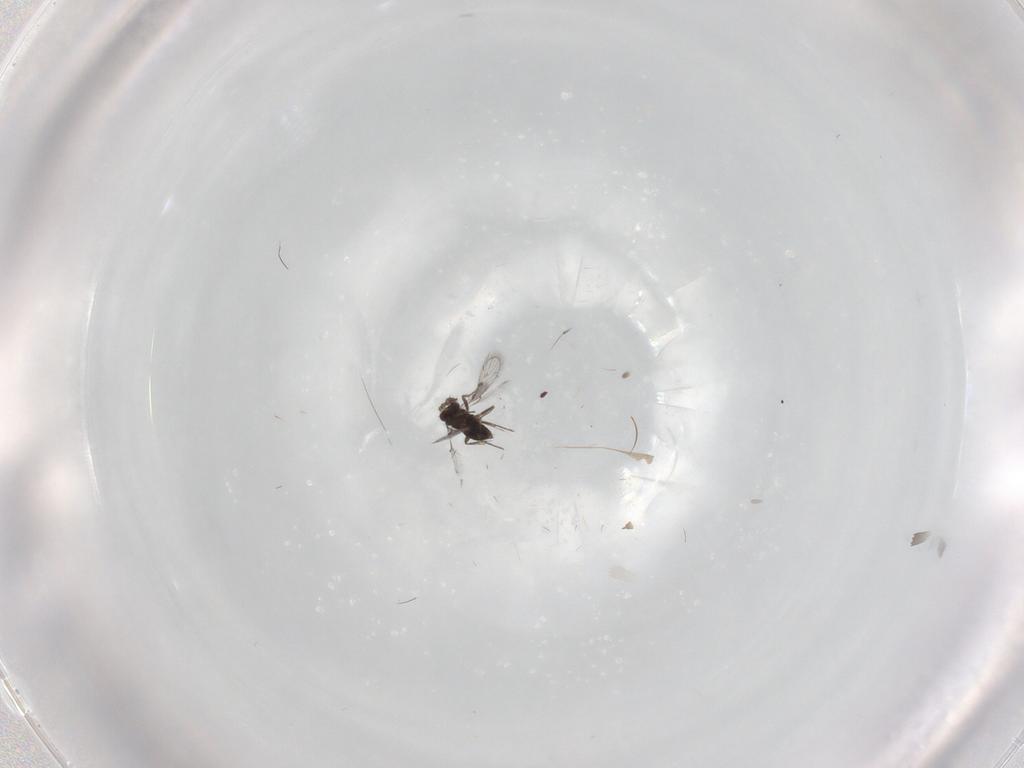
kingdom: Animalia
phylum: Arthropoda
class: Insecta
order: Hymenoptera
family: Trichogrammatidae
